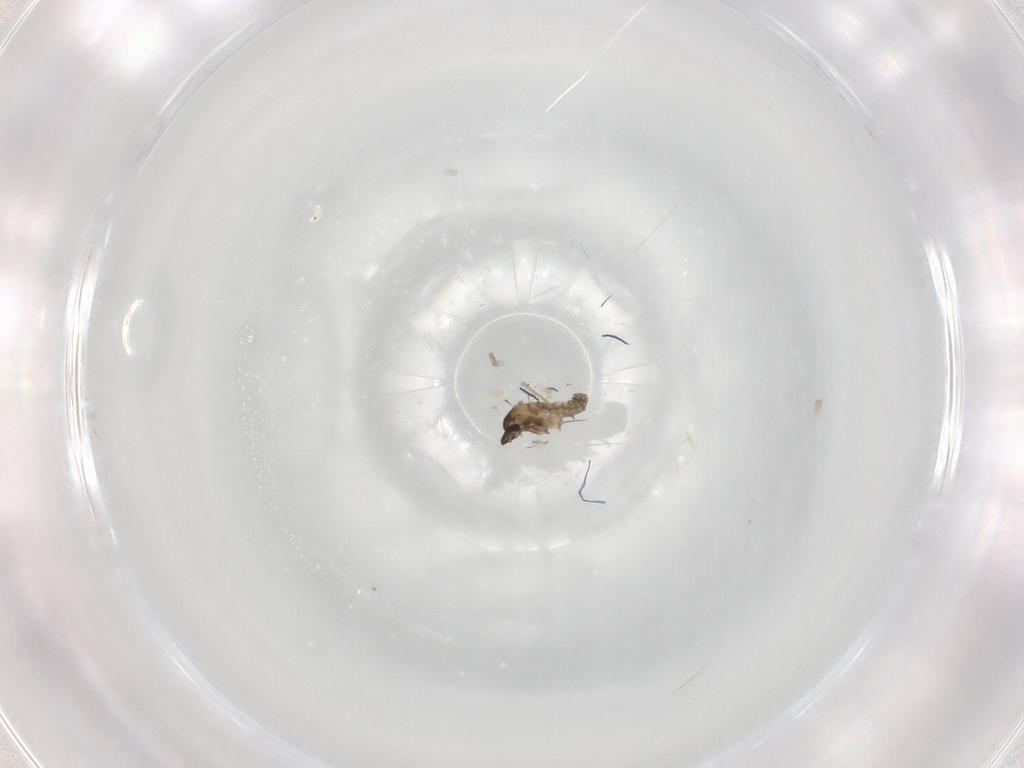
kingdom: Animalia
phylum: Arthropoda
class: Insecta
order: Diptera
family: Cecidomyiidae
